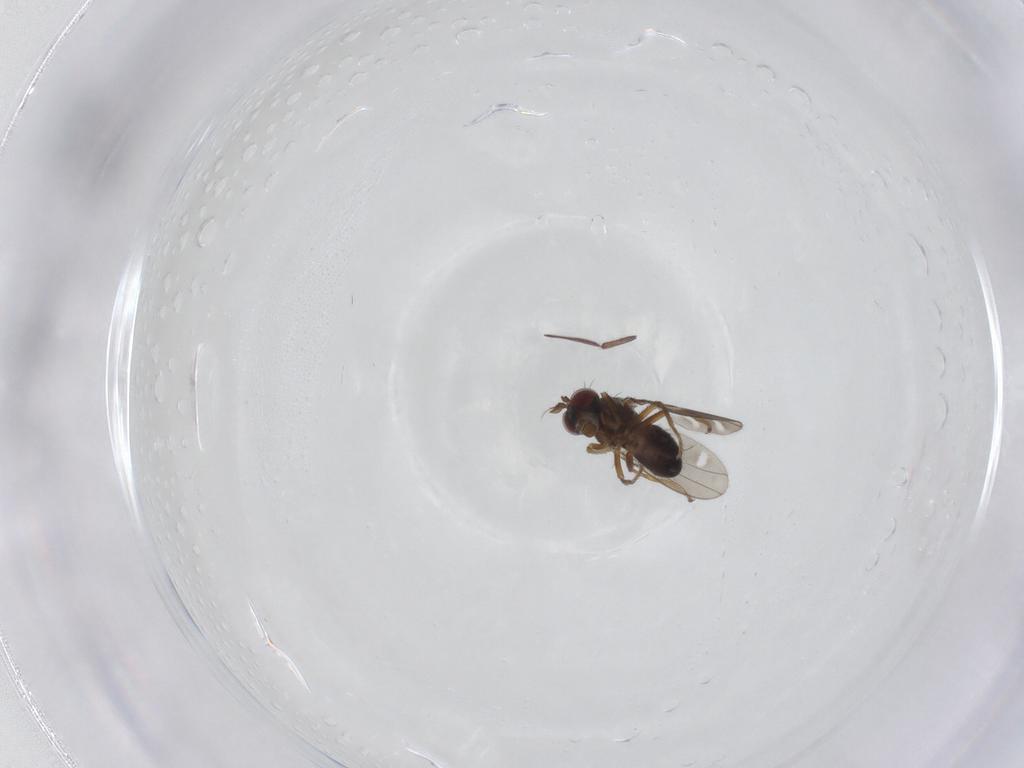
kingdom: Animalia
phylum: Arthropoda
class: Insecta
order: Diptera
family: Ephydridae
